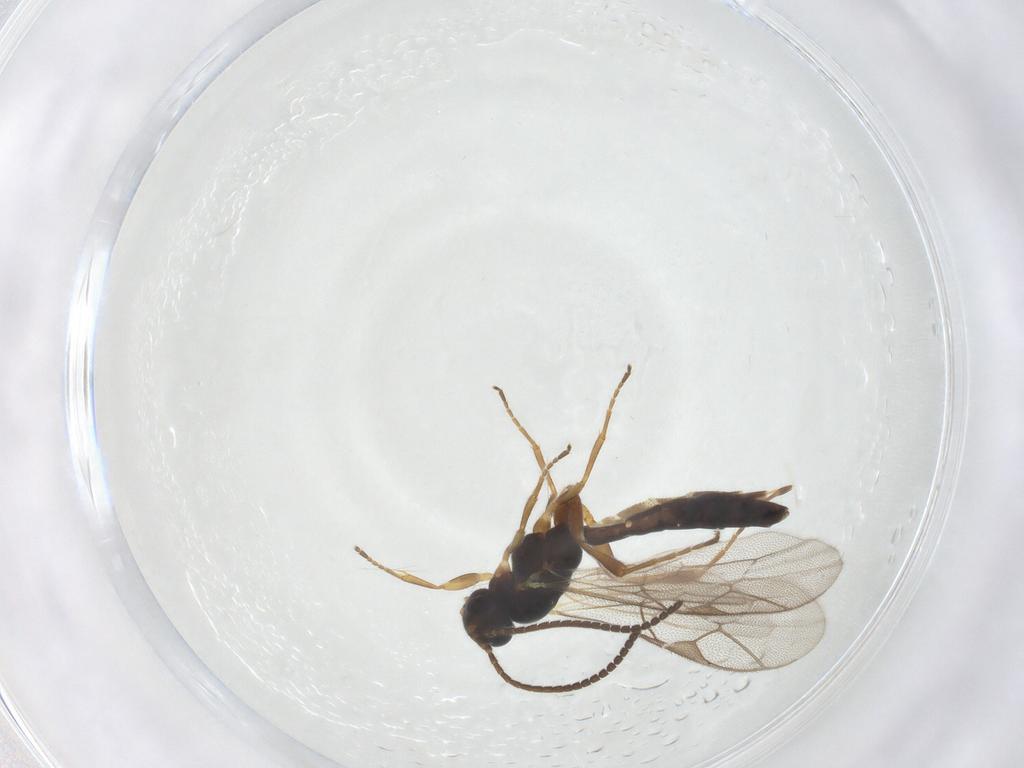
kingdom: Animalia
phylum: Arthropoda
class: Insecta
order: Hymenoptera
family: Ichneumonidae
